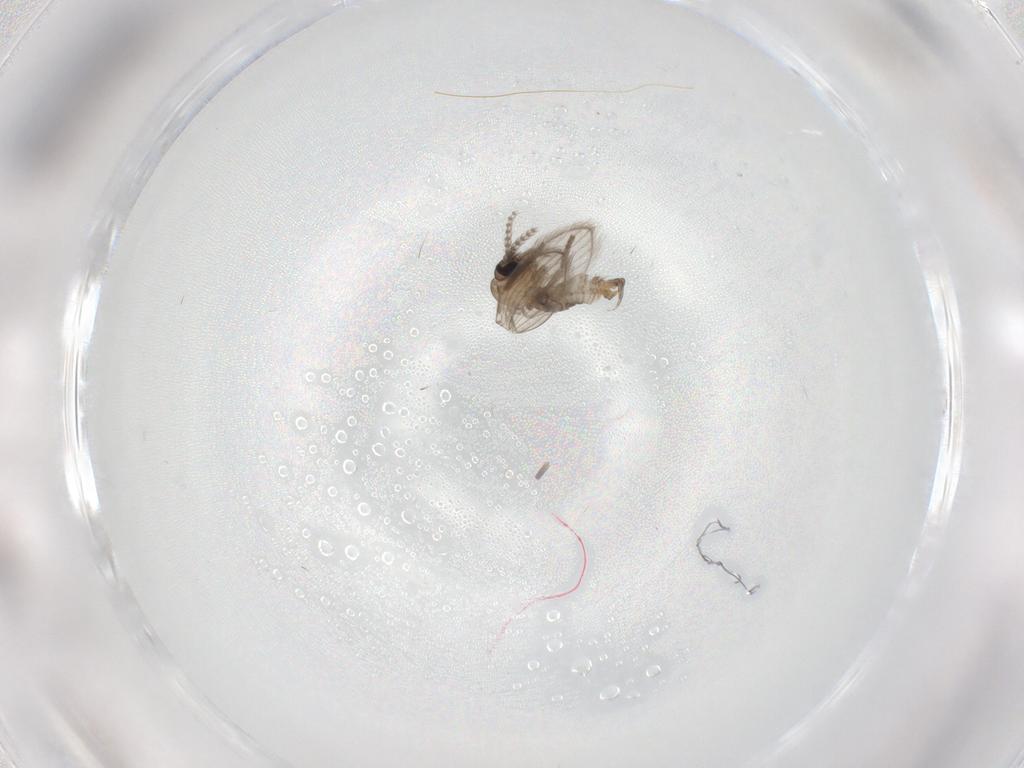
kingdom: Animalia
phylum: Arthropoda
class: Insecta
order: Diptera
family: Psychodidae
